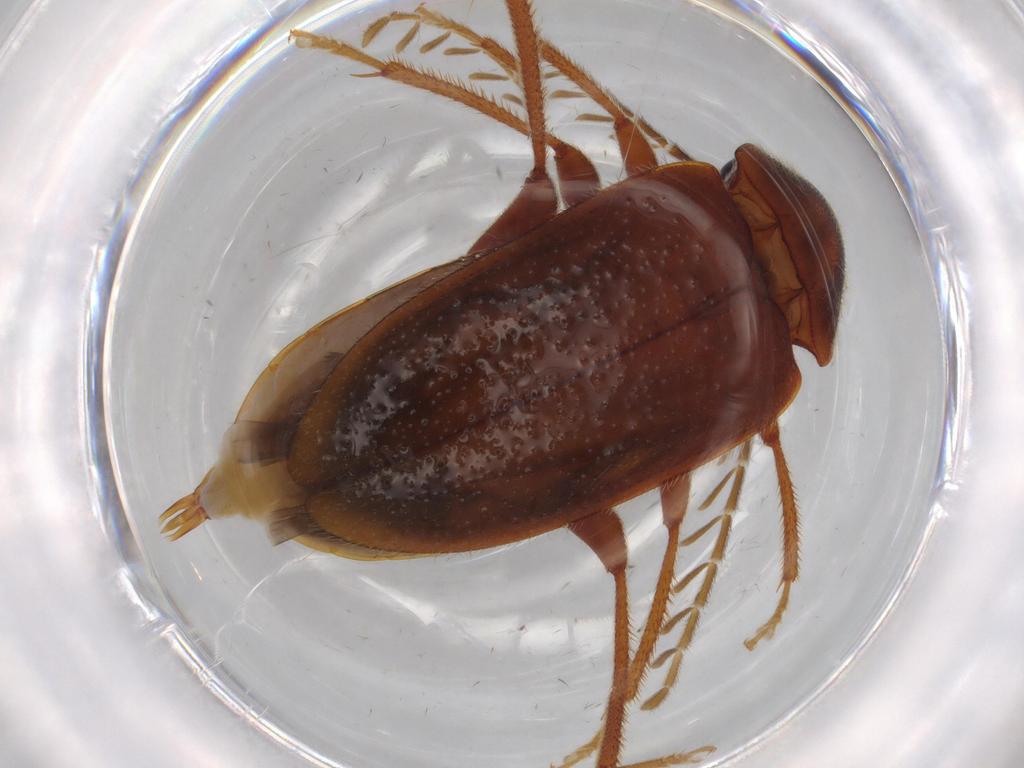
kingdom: Animalia
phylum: Arthropoda
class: Insecta
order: Coleoptera
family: Ptilodactylidae
